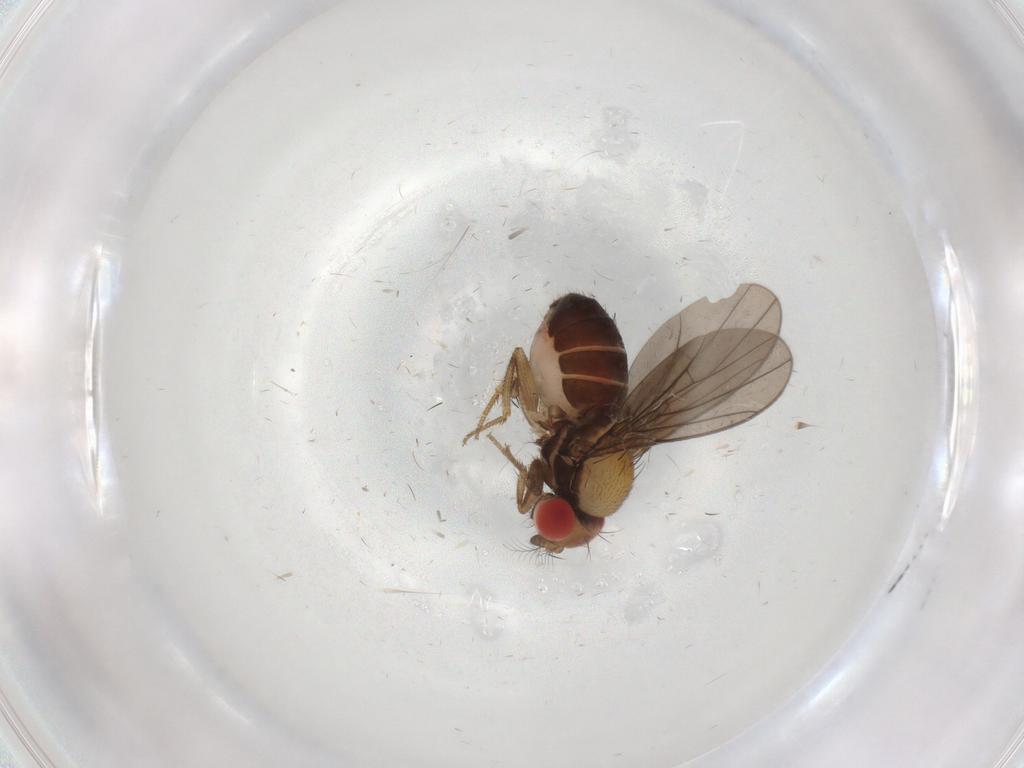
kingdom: Animalia
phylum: Arthropoda
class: Insecta
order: Diptera
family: Drosophilidae
